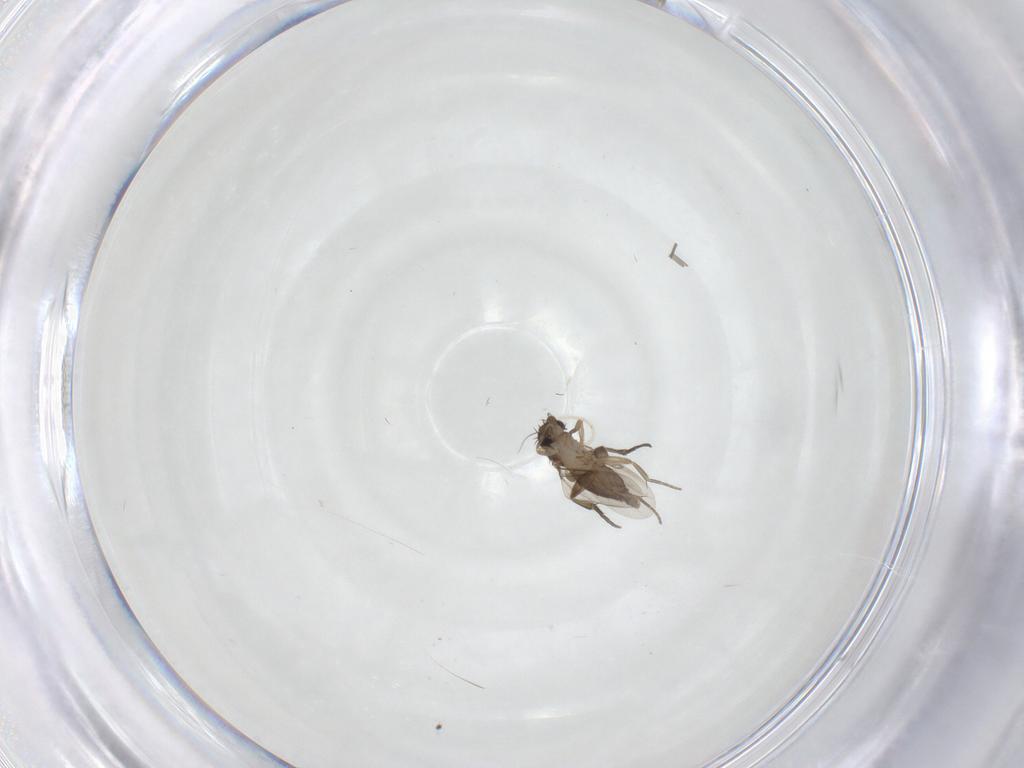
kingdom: Animalia
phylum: Arthropoda
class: Insecta
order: Diptera
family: Phoridae
